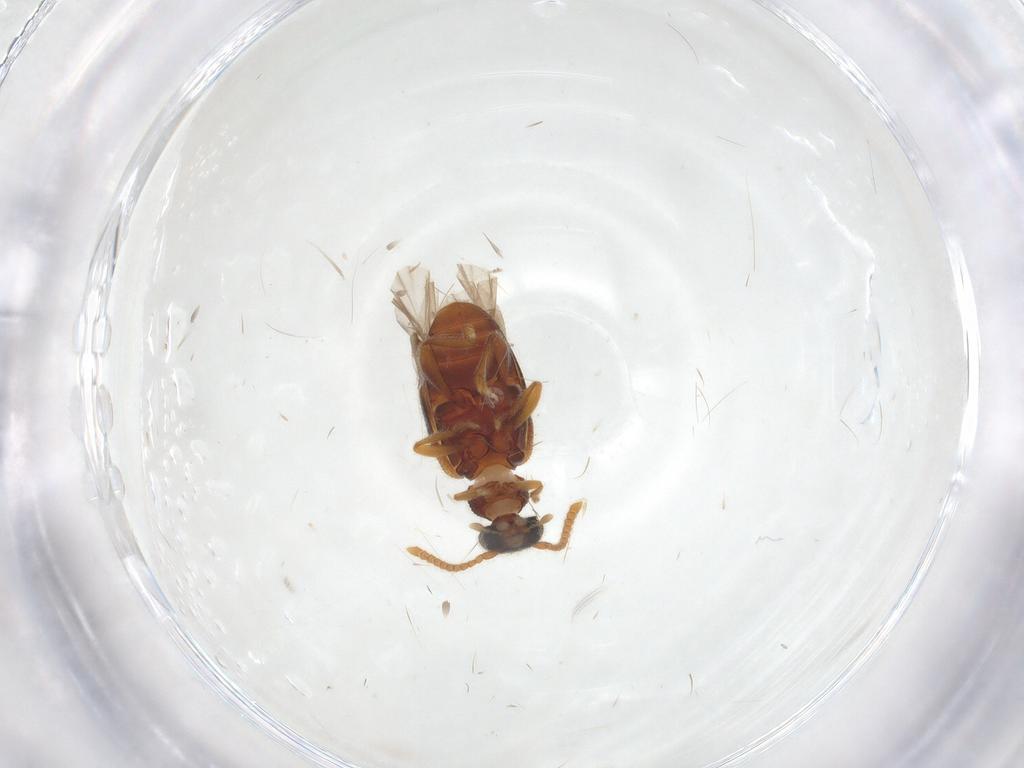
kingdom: Animalia
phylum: Arthropoda
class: Insecta
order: Coleoptera
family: Aderidae
